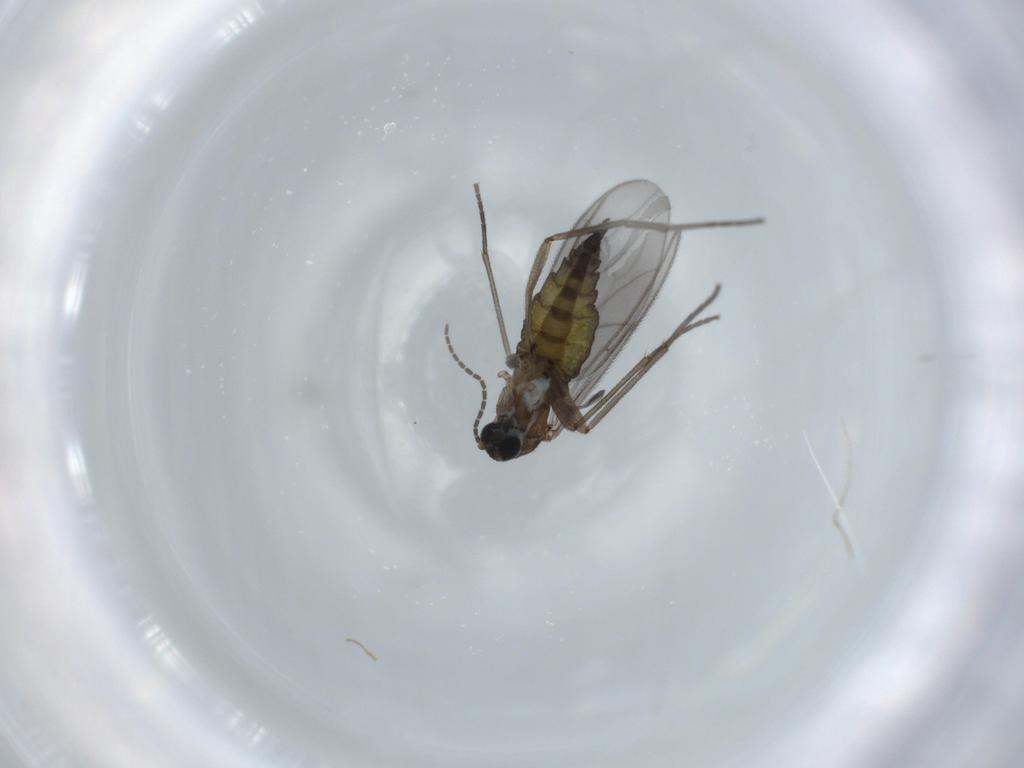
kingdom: Animalia
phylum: Arthropoda
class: Insecta
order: Diptera
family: Sciaridae
